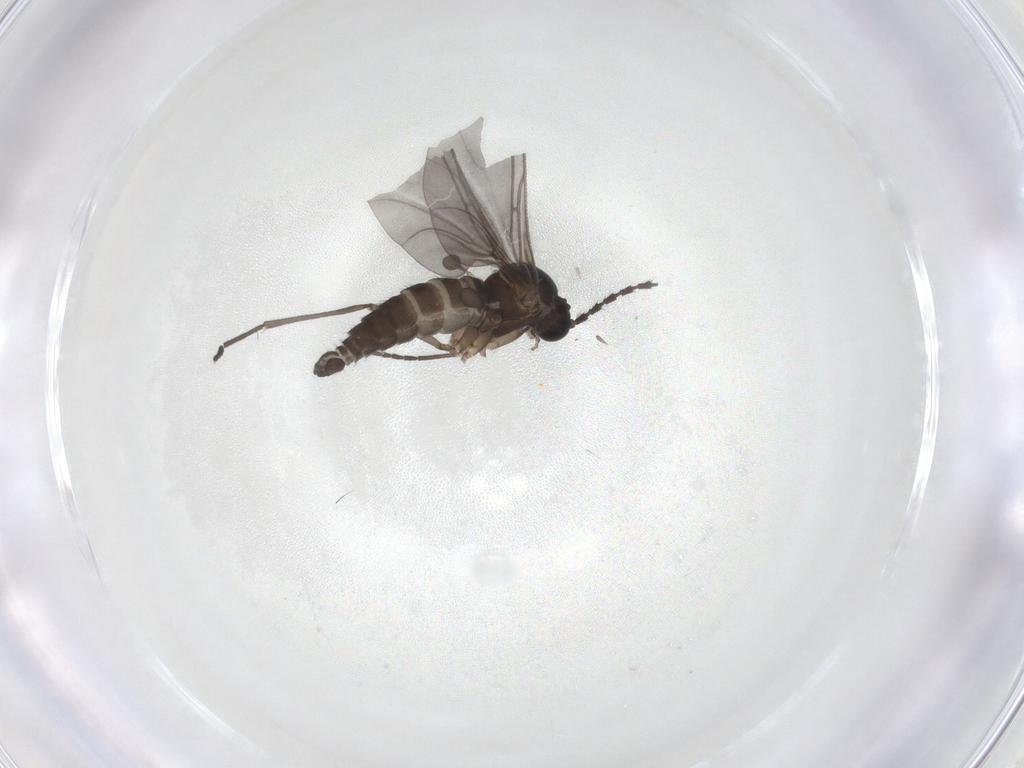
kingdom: Animalia
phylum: Arthropoda
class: Insecta
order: Diptera
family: Sciaridae
